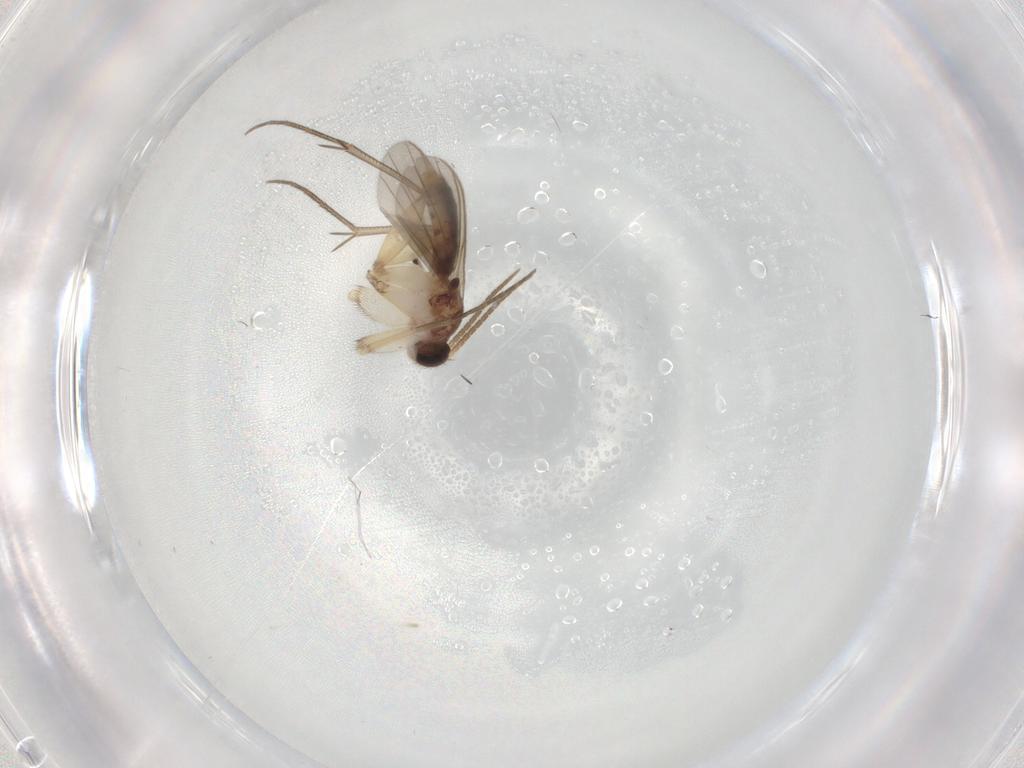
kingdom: Animalia
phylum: Arthropoda
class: Insecta
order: Diptera
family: Mycetophilidae
